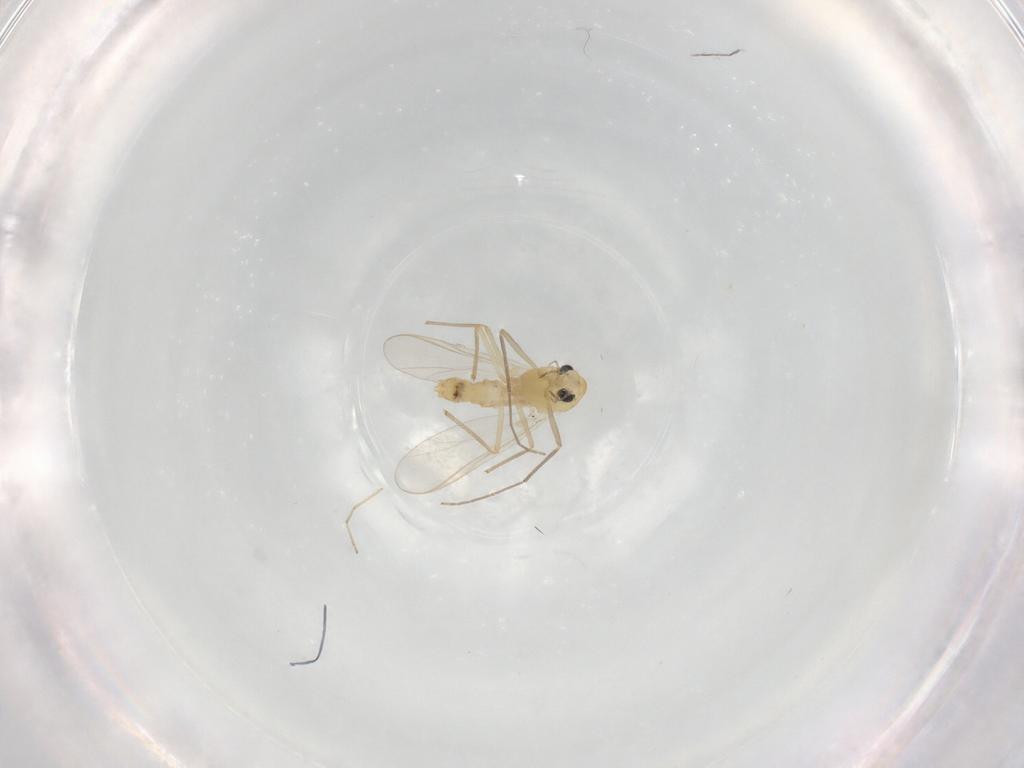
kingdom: Animalia
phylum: Arthropoda
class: Insecta
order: Diptera
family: Chironomidae
